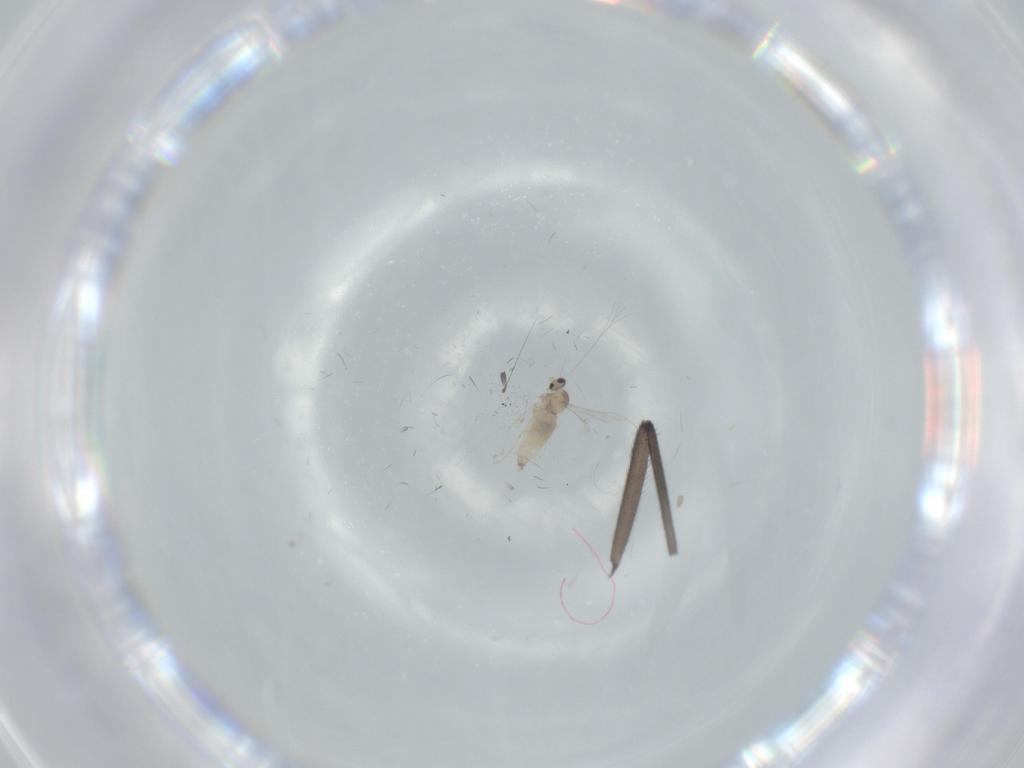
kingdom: Animalia
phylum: Arthropoda
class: Insecta
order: Diptera
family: Cecidomyiidae
